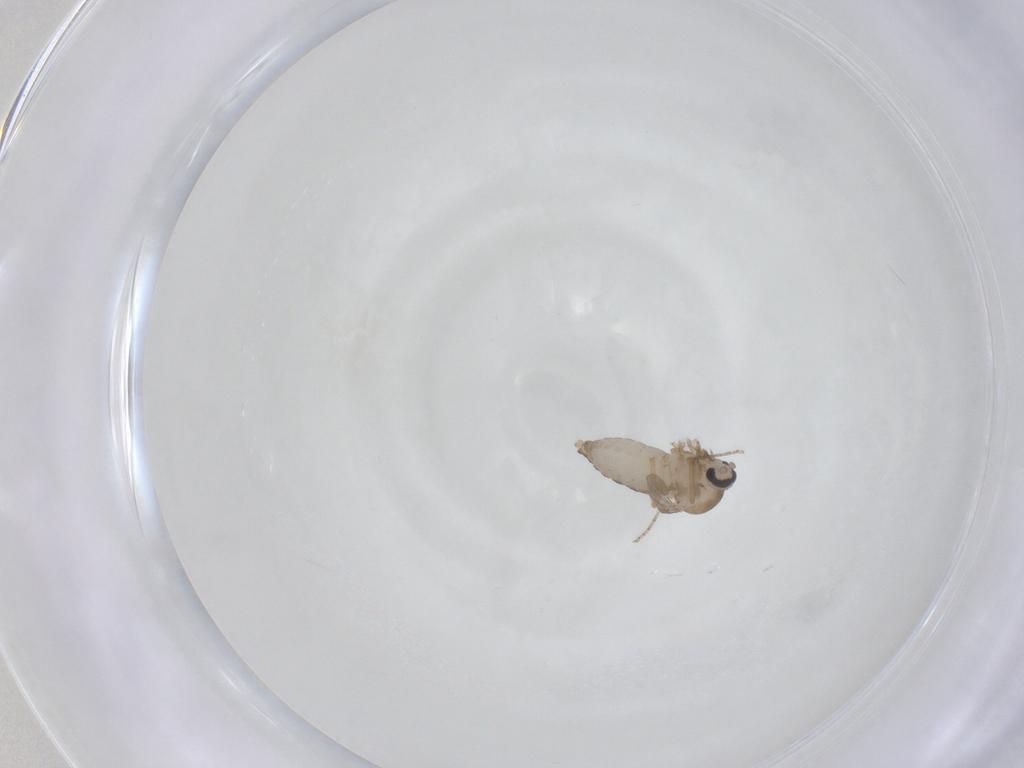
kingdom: Animalia
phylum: Arthropoda
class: Insecta
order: Diptera
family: Ceratopogonidae
